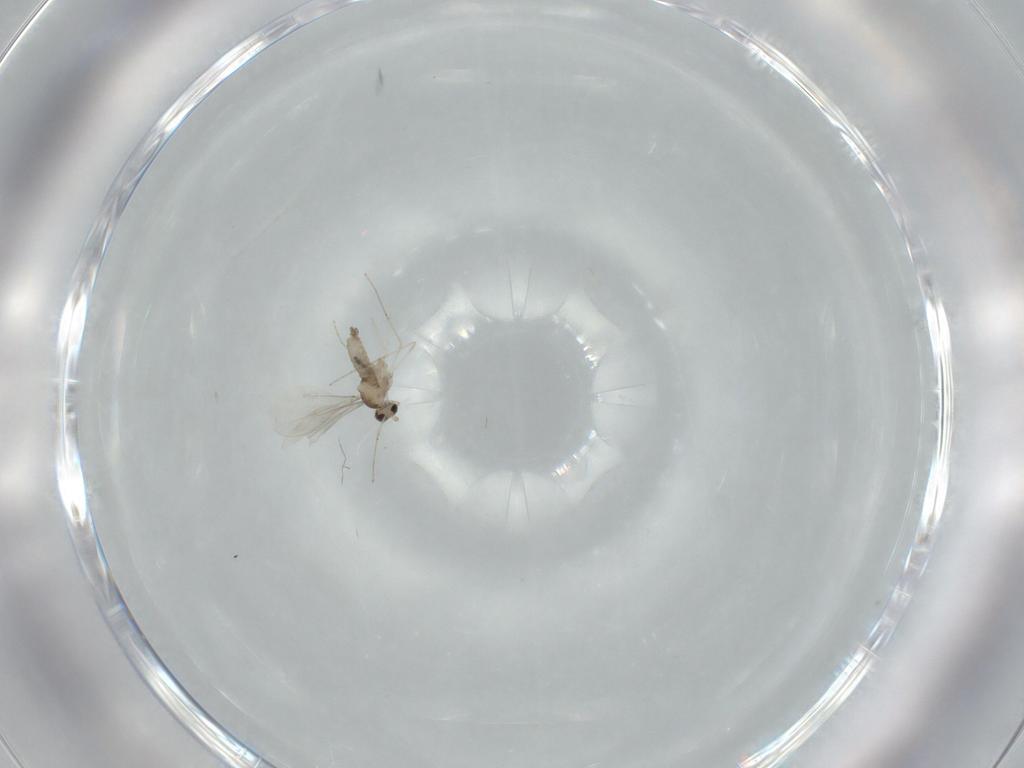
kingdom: Animalia
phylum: Arthropoda
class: Insecta
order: Diptera
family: Cecidomyiidae
